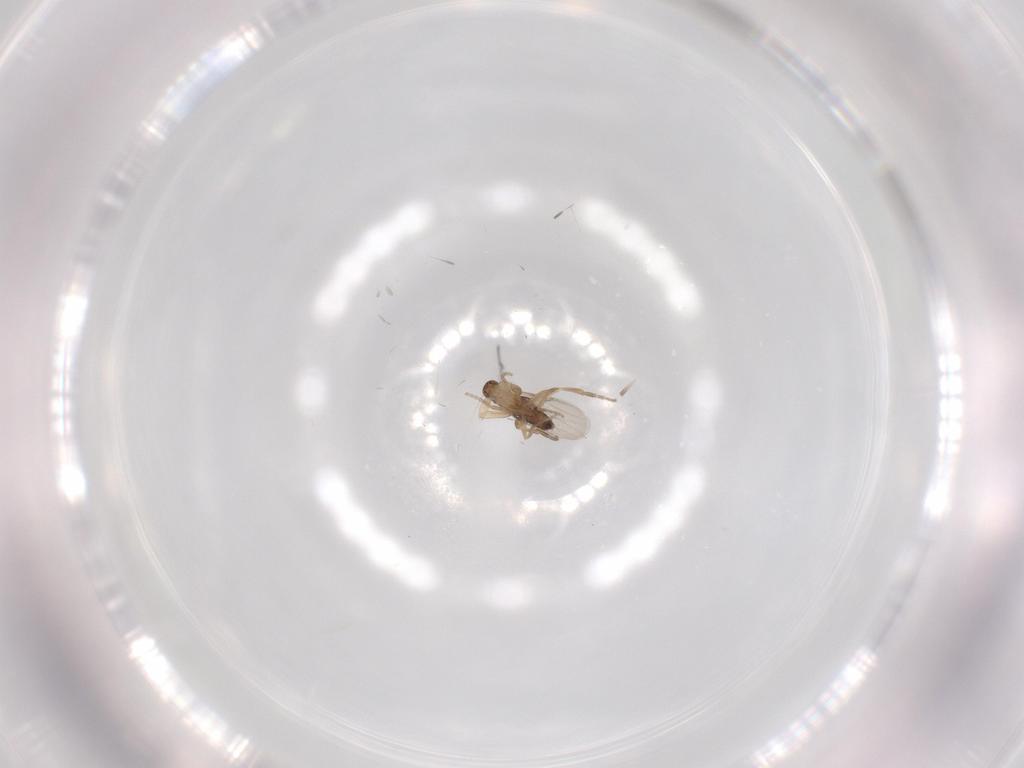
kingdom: Animalia
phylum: Arthropoda
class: Insecta
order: Diptera
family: Phoridae
